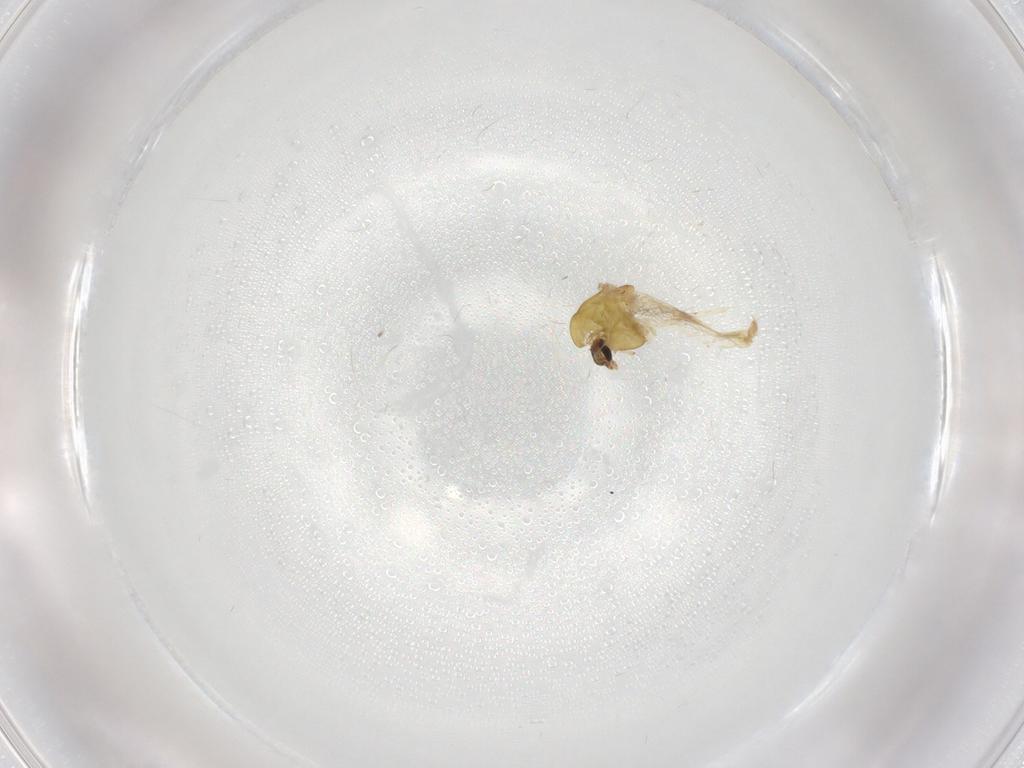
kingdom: Animalia
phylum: Arthropoda
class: Insecta
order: Diptera
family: Chironomidae
